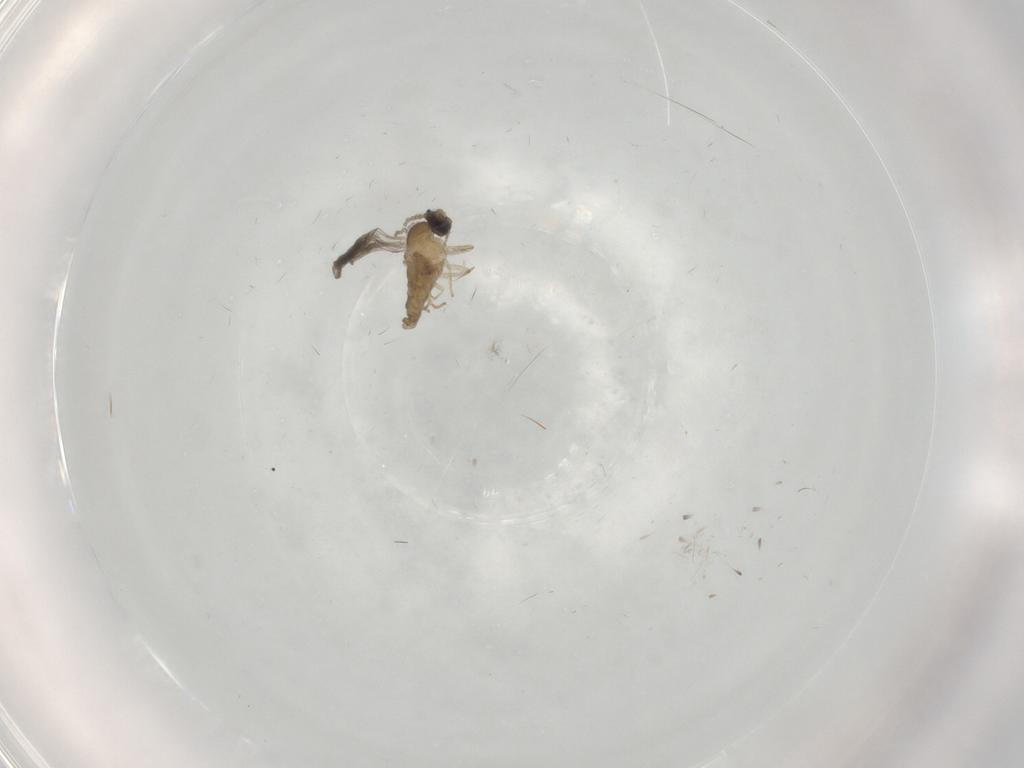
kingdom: Animalia
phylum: Arthropoda
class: Insecta
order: Diptera
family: Cecidomyiidae
